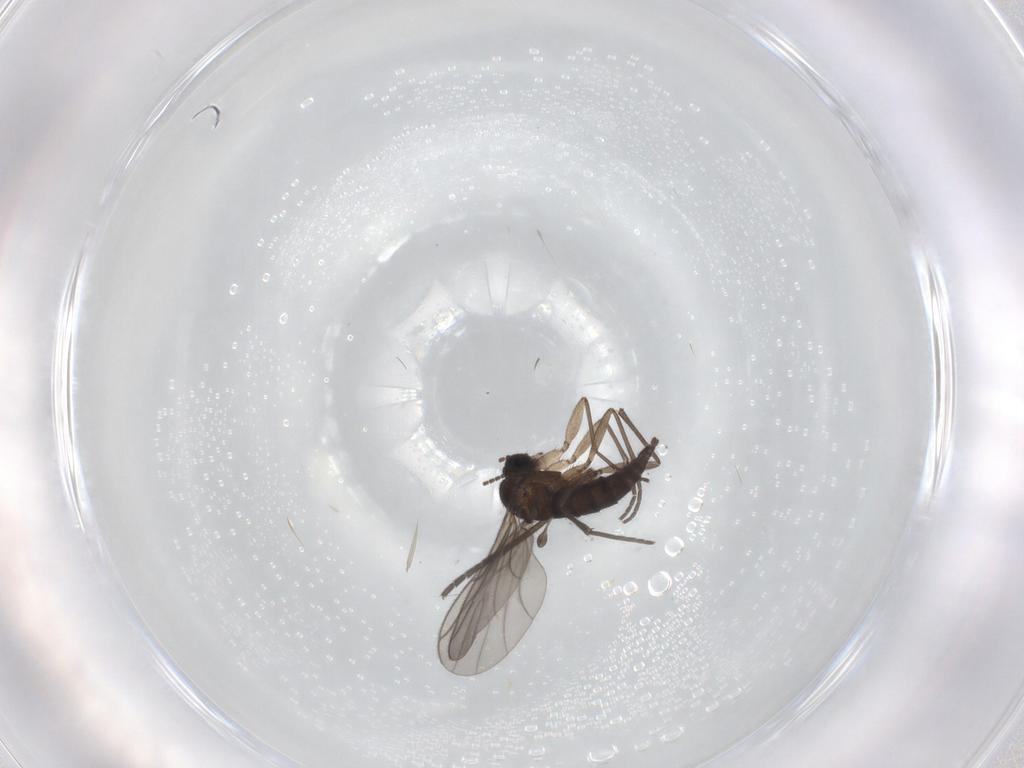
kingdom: Animalia
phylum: Arthropoda
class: Insecta
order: Diptera
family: Sciaridae
